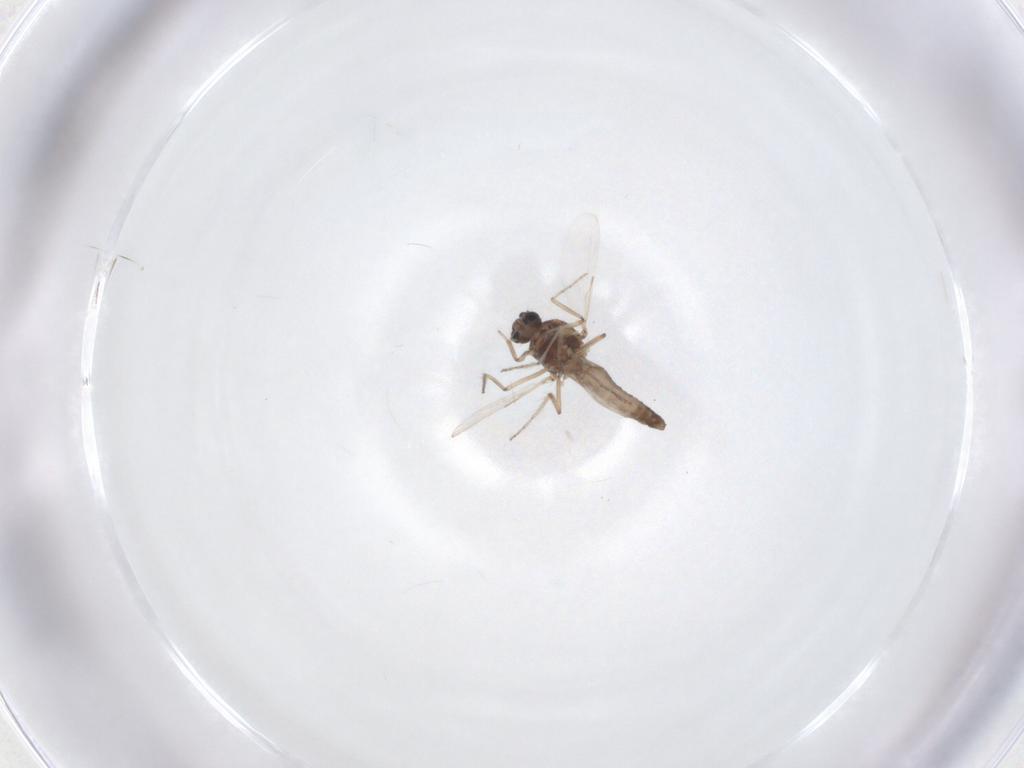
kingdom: Animalia
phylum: Arthropoda
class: Insecta
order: Diptera
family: Ceratopogonidae
